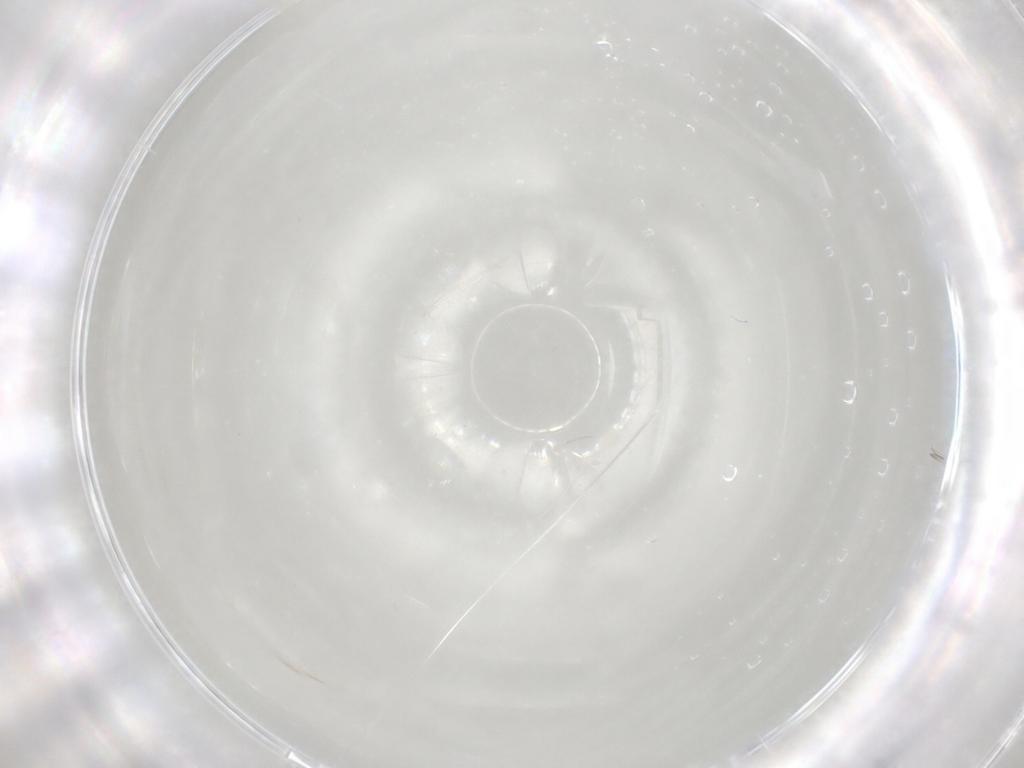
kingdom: Animalia
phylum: Arthropoda
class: Arachnida
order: Trombidiformes
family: Eupodidae
